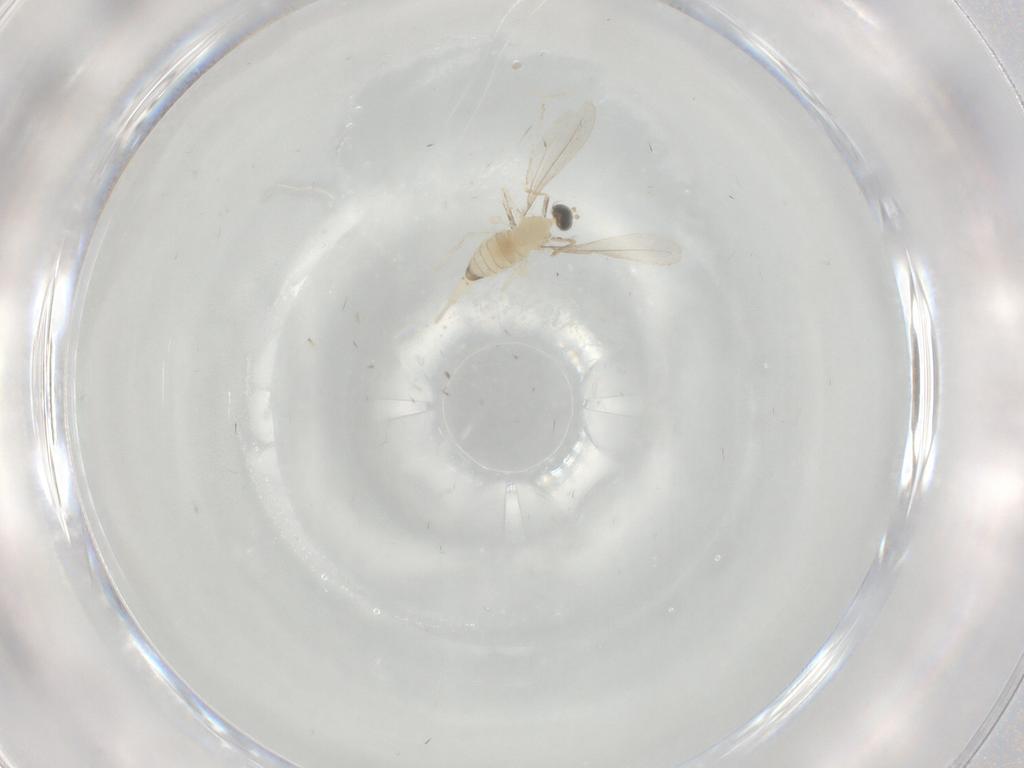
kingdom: Animalia
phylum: Arthropoda
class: Insecta
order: Diptera
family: Cecidomyiidae
